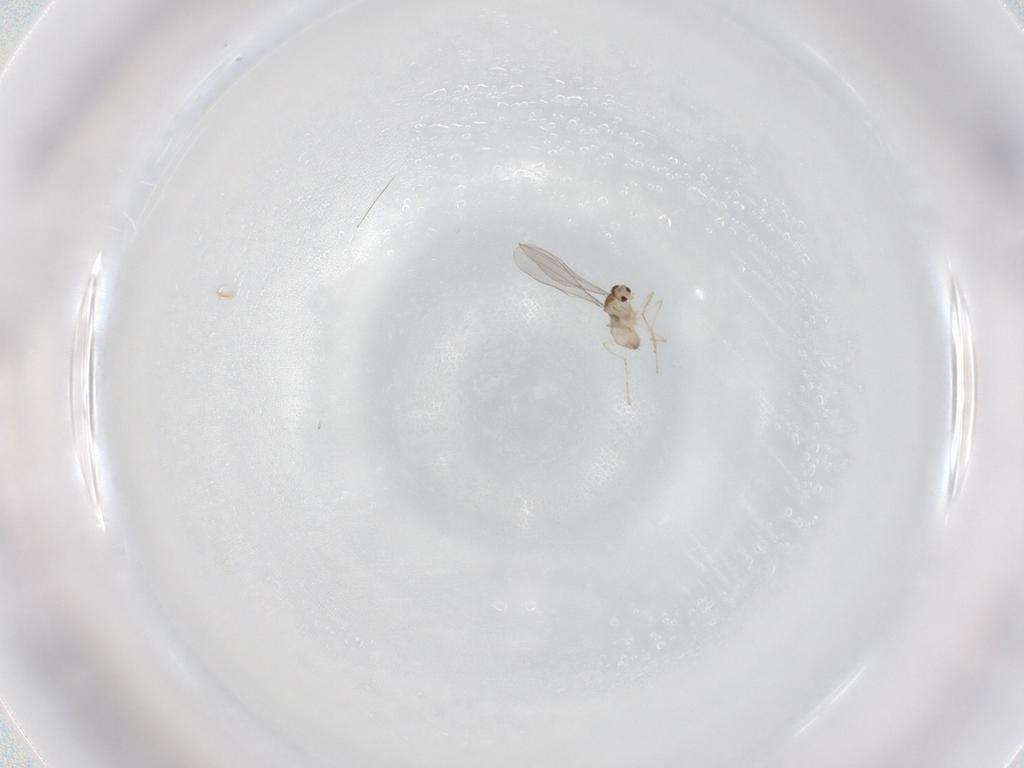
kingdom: Animalia
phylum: Arthropoda
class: Insecta
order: Diptera
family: Cecidomyiidae
